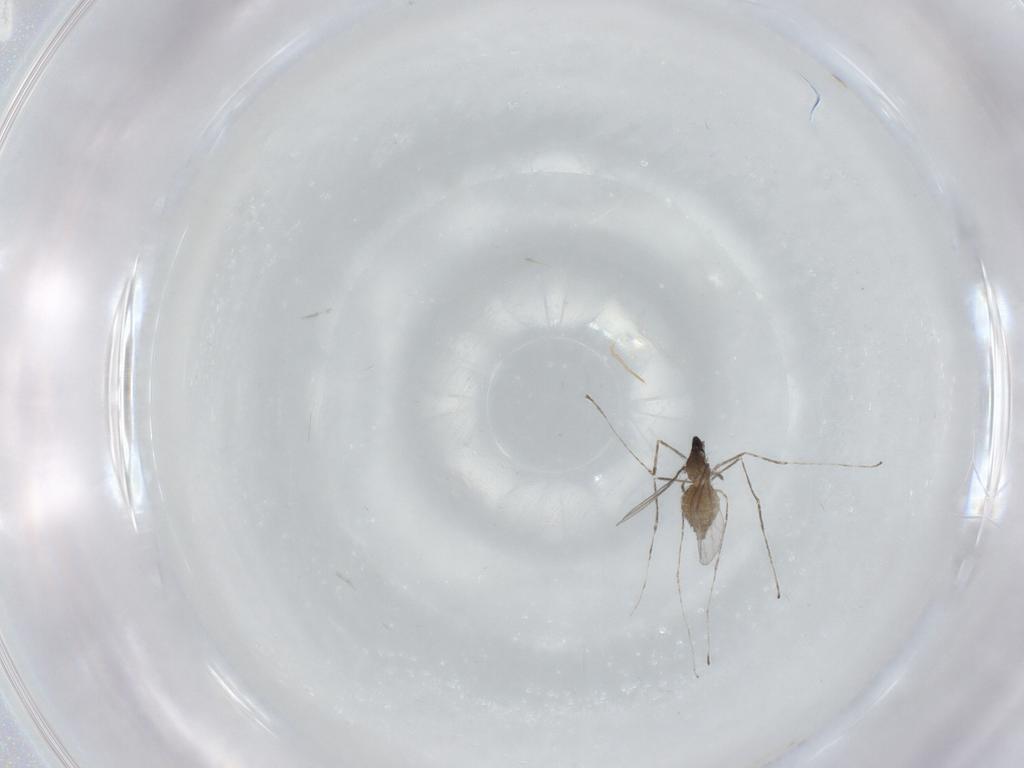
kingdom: Animalia
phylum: Arthropoda
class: Insecta
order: Diptera
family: Cecidomyiidae
